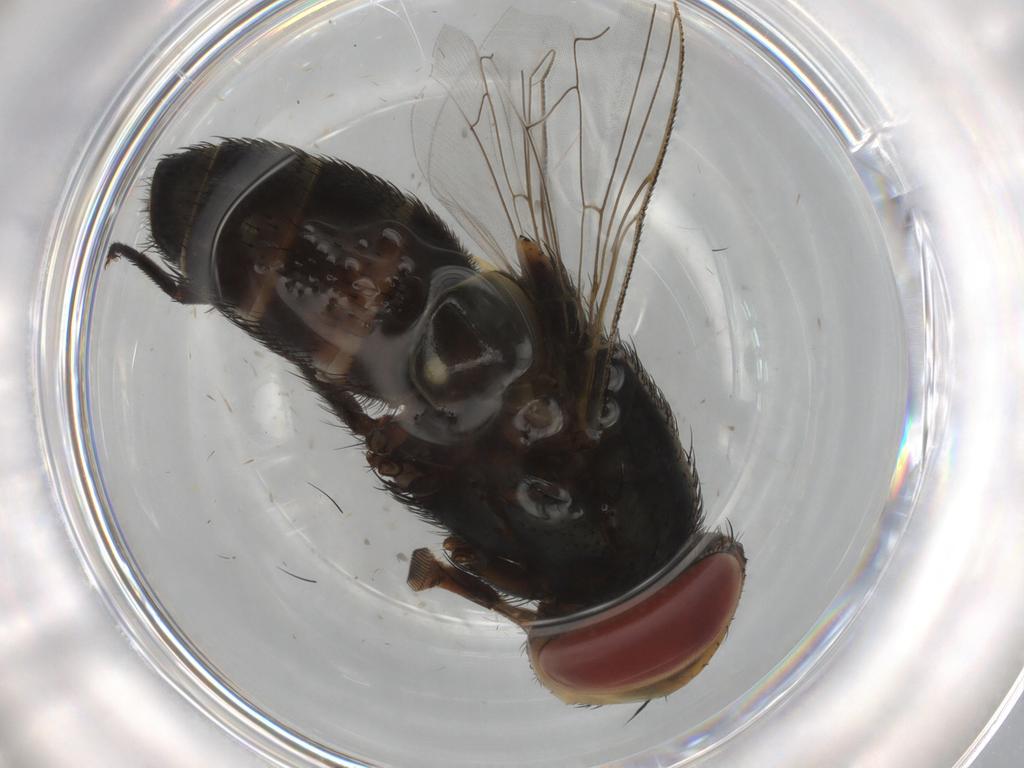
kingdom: Animalia
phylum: Arthropoda
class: Insecta
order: Diptera
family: Sarcophagidae
